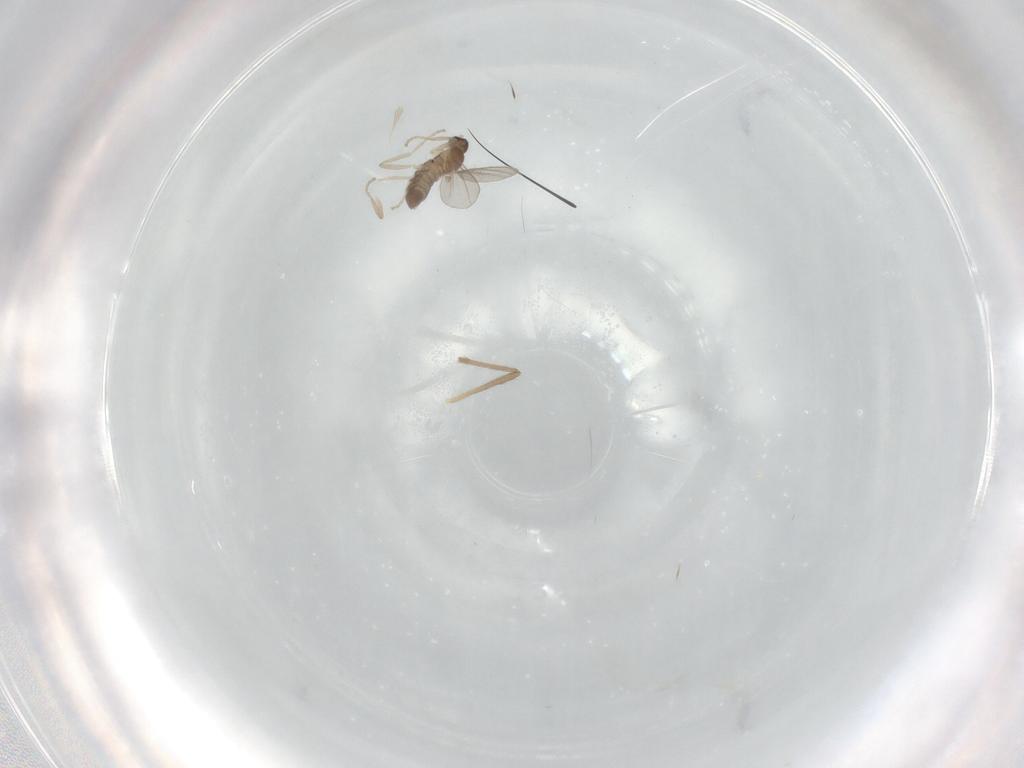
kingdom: Animalia
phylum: Arthropoda
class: Insecta
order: Diptera
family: Cecidomyiidae
